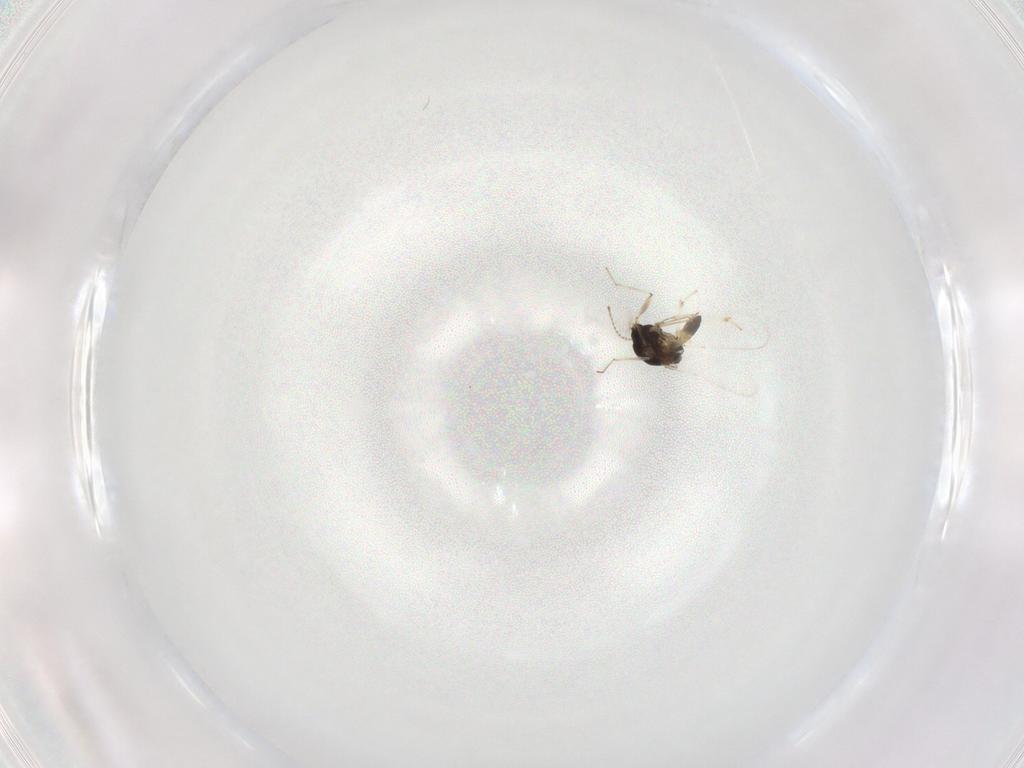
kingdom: Animalia
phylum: Arthropoda
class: Insecta
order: Diptera
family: Chironomidae
